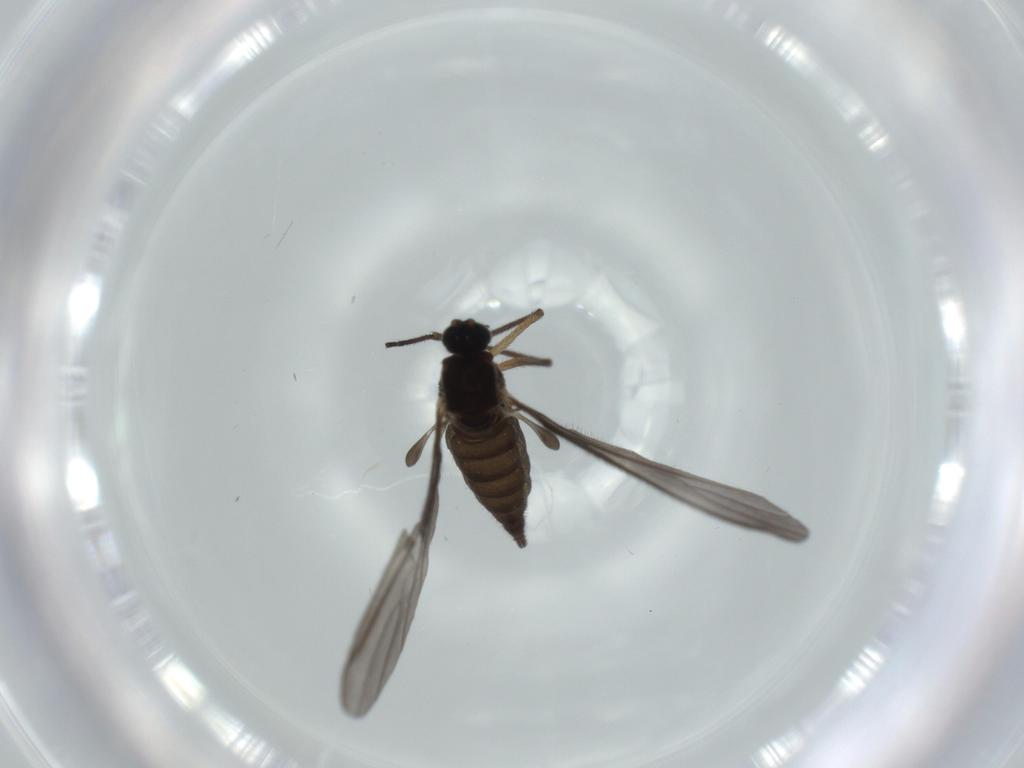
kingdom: Animalia
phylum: Arthropoda
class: Insecta
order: Diptera
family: Sciaridae
